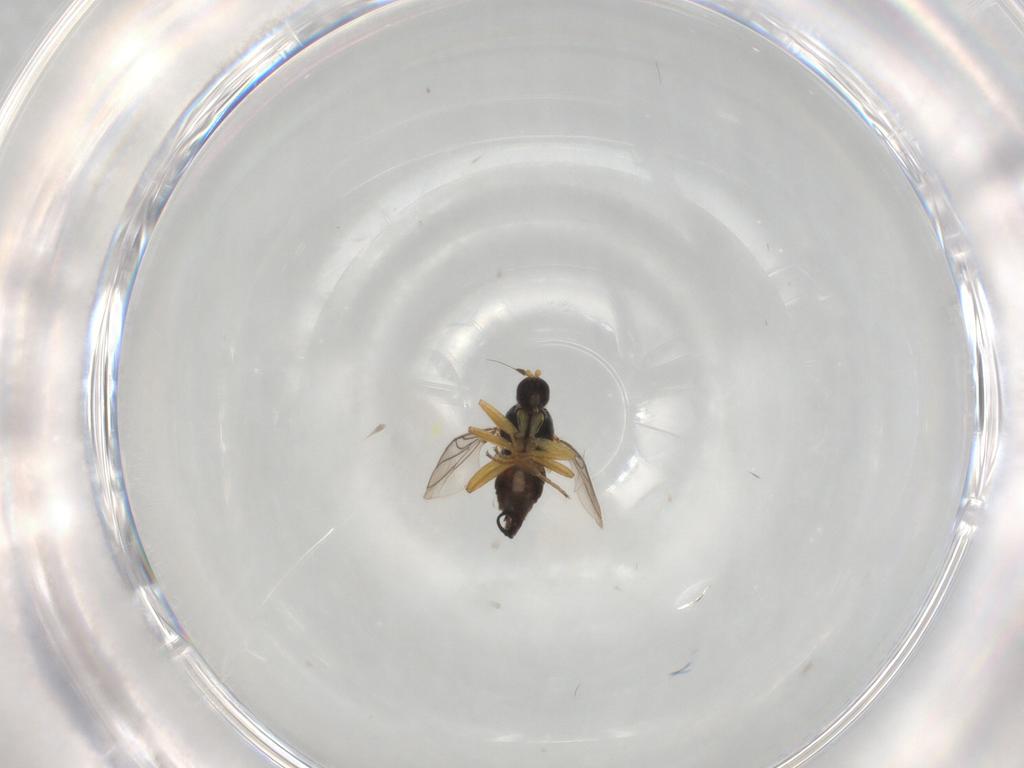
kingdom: Animalia
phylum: Arthropoda
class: Insecta
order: Diptera
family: Hybotidae
